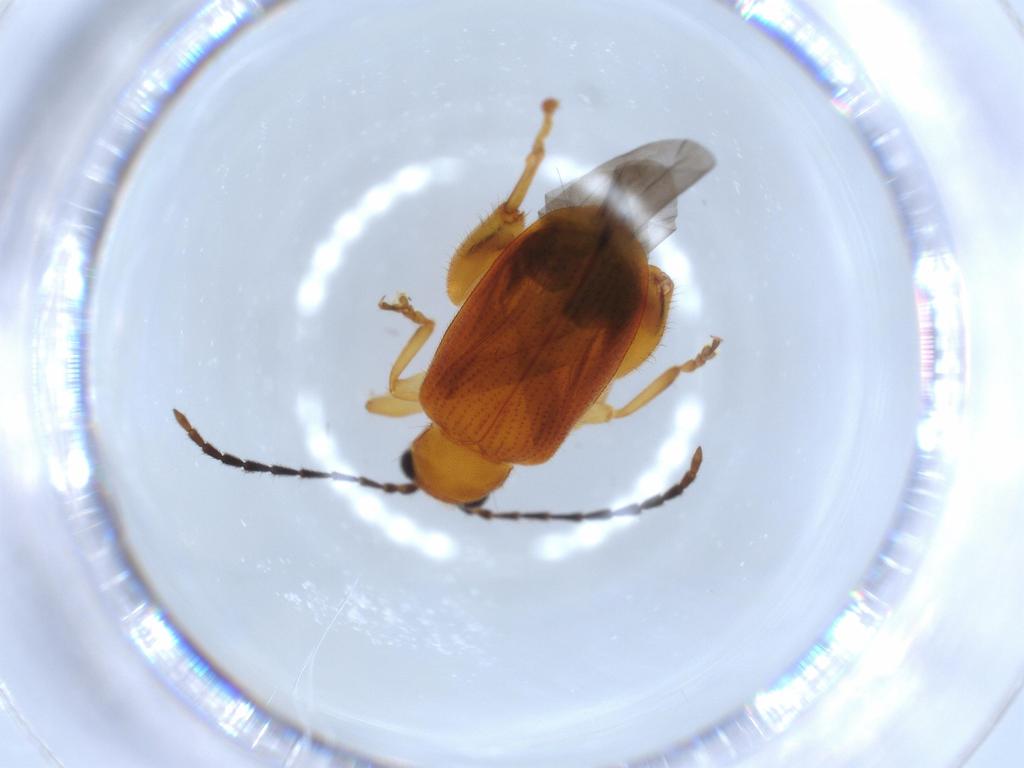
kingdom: Animalia
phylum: Arthropoda
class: Insecta
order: Coleoptera
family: Chrysomelidae
